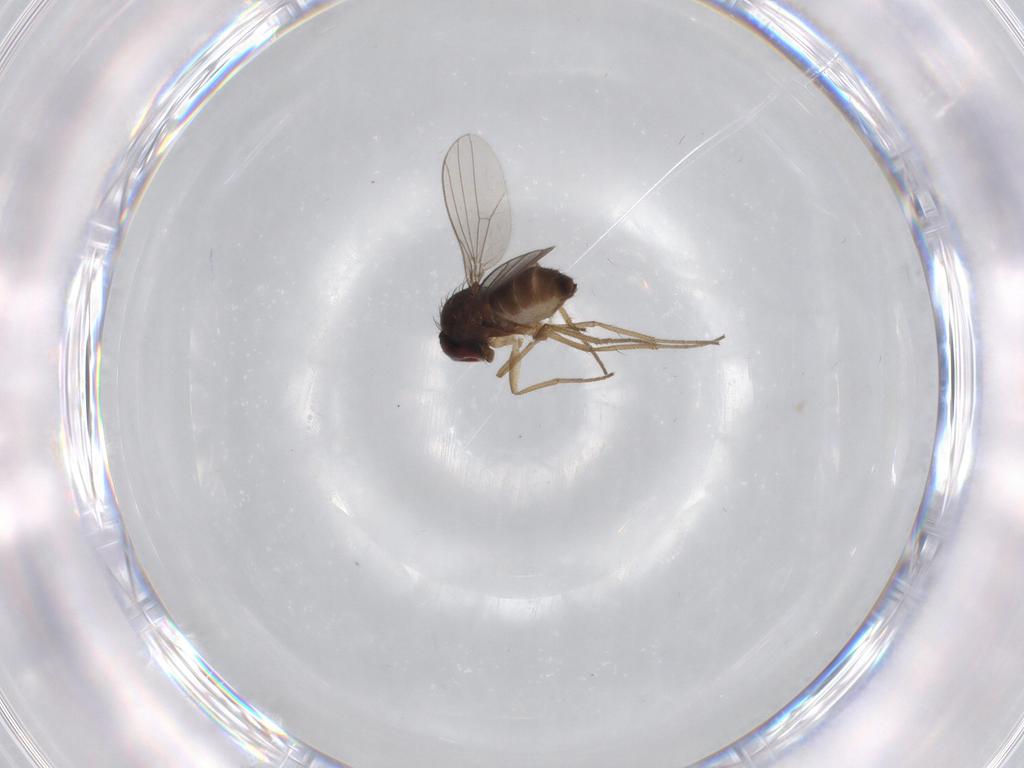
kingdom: Animalia
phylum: Arthropoda
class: Insecta
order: Diptera
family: Dolichopodidae
